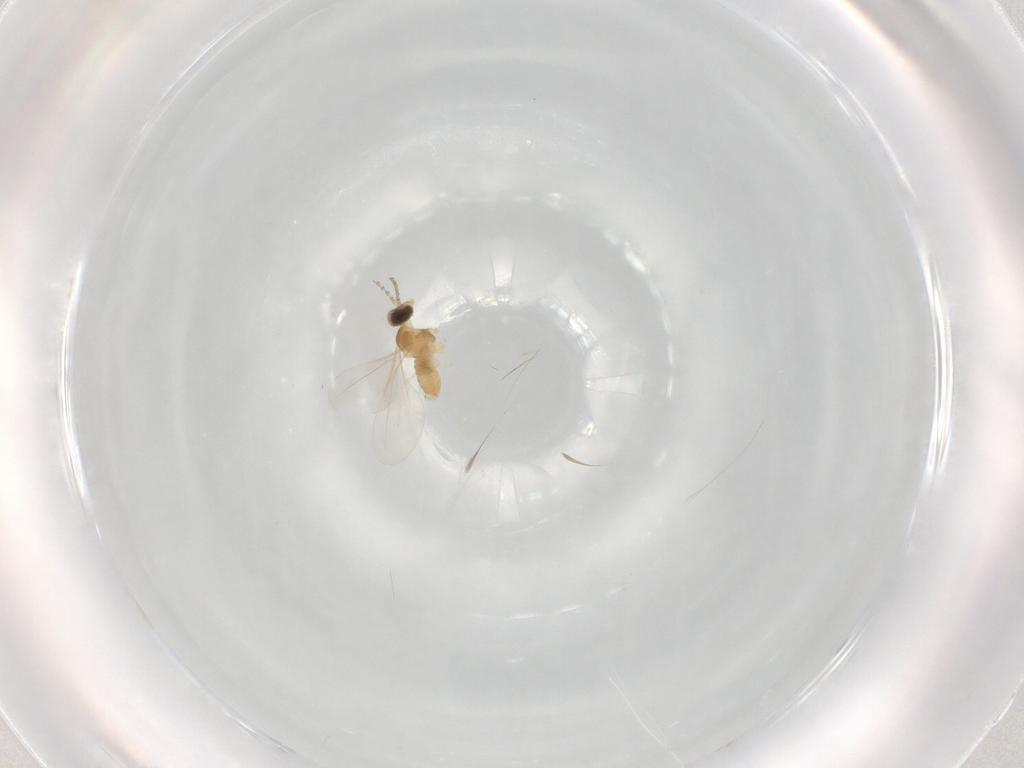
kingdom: Animalia
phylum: Arthropoda
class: Insecta
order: Diptera
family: Cecidomyiidae
